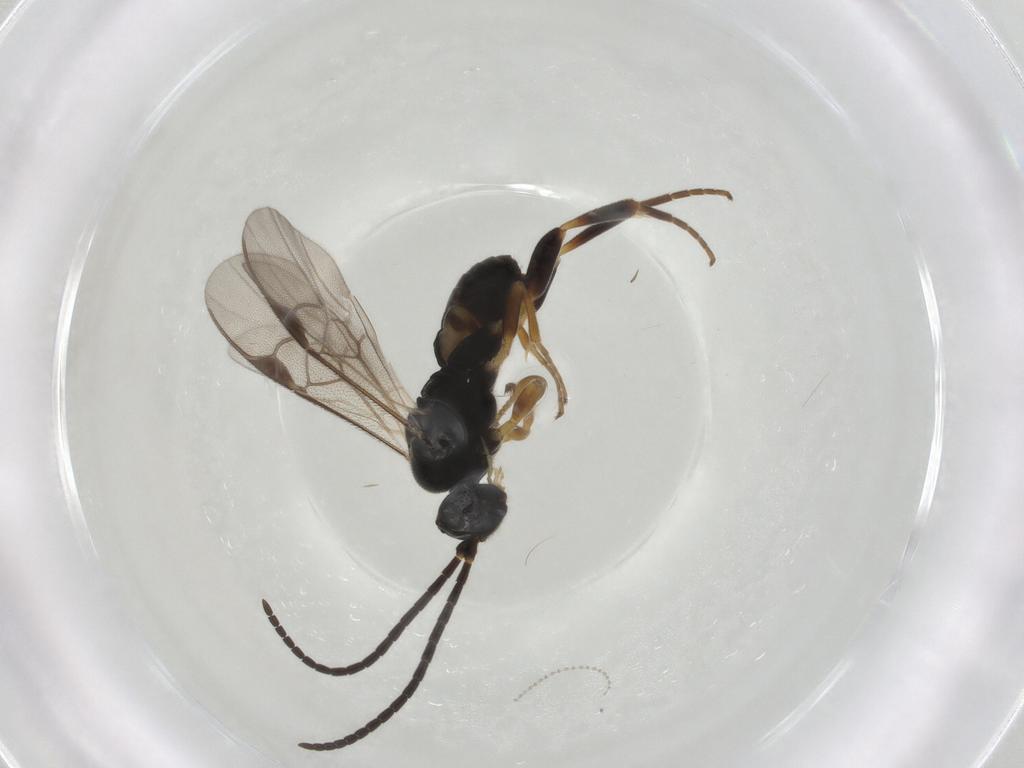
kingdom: Animalia
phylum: Arthropoda
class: Insecta
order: Hymenoptera
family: Braconidae
